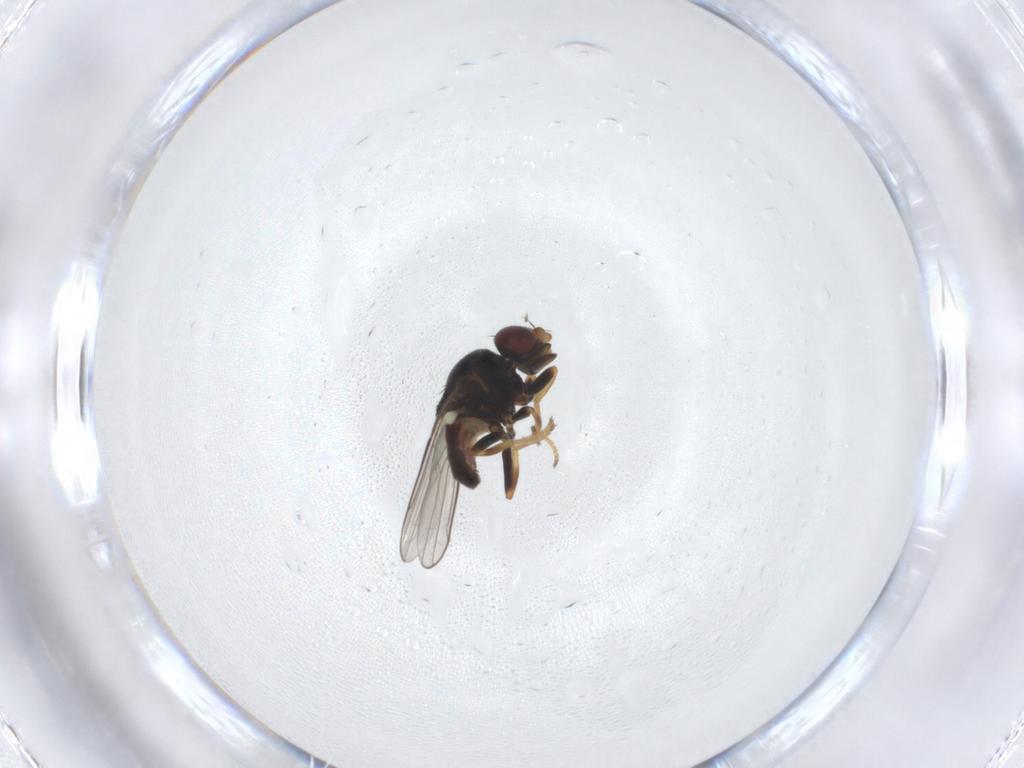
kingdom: Animalia
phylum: Arthropoda
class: Insecta
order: Diptera
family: Chloropidae
